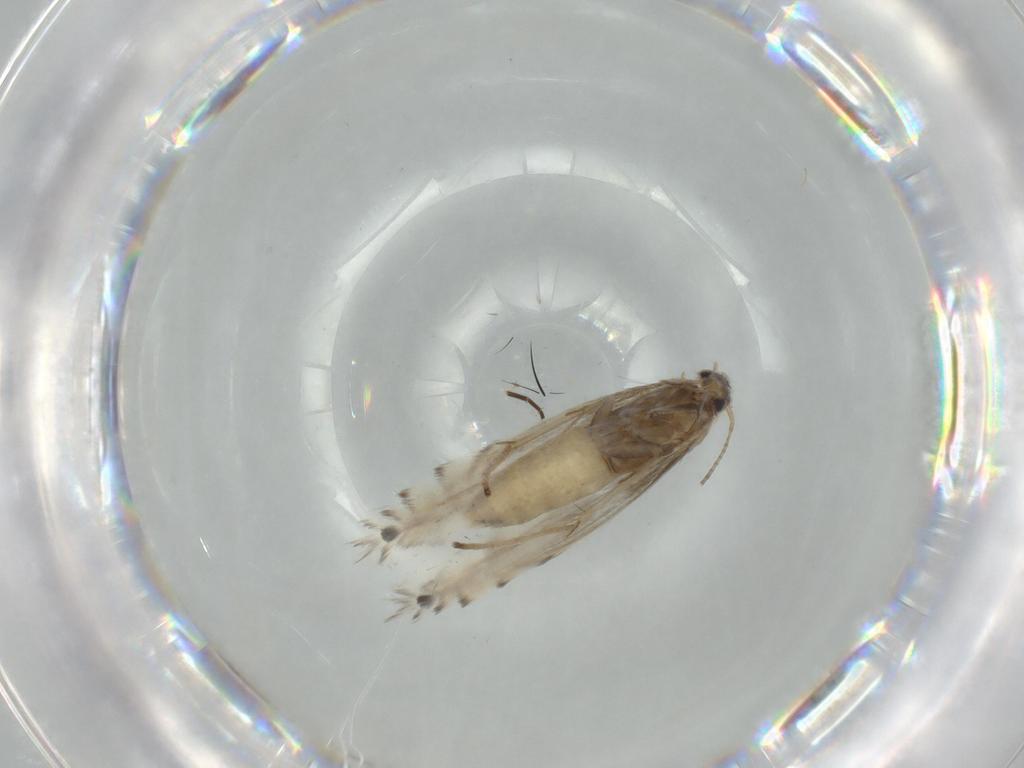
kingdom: Animalia
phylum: Arthropoda
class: Insecta
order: Lepidoptera
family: Gracillariidae
